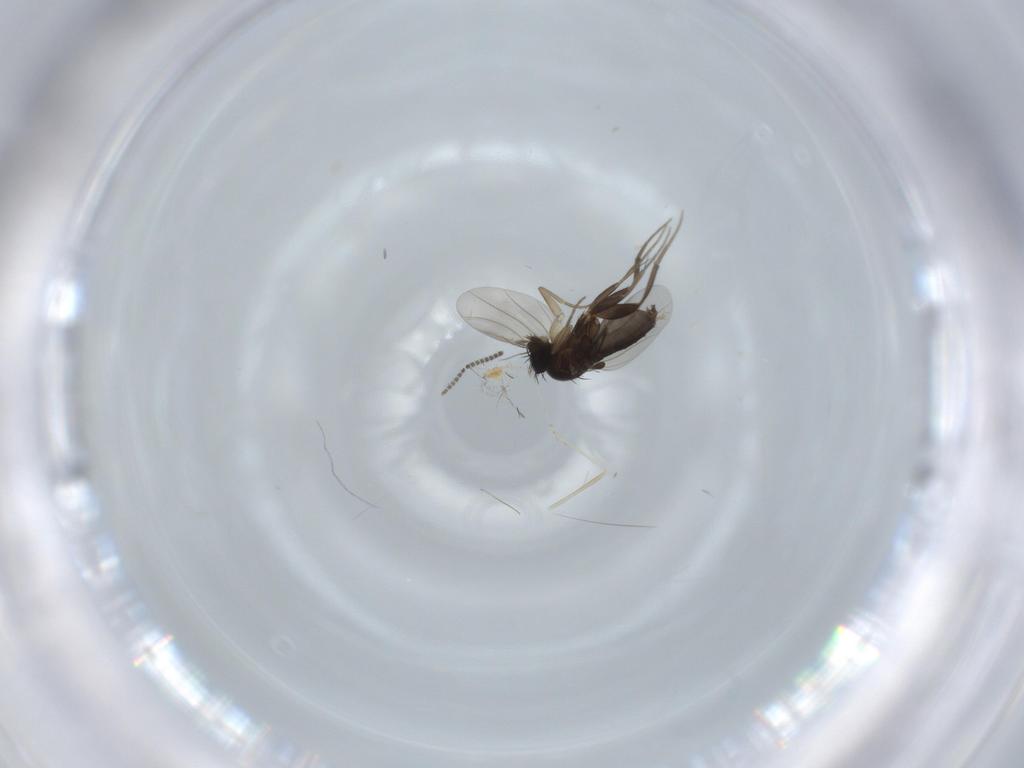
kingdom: Animalia
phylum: Arthropoda
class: Insecta
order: Diptera
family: Phoridae
